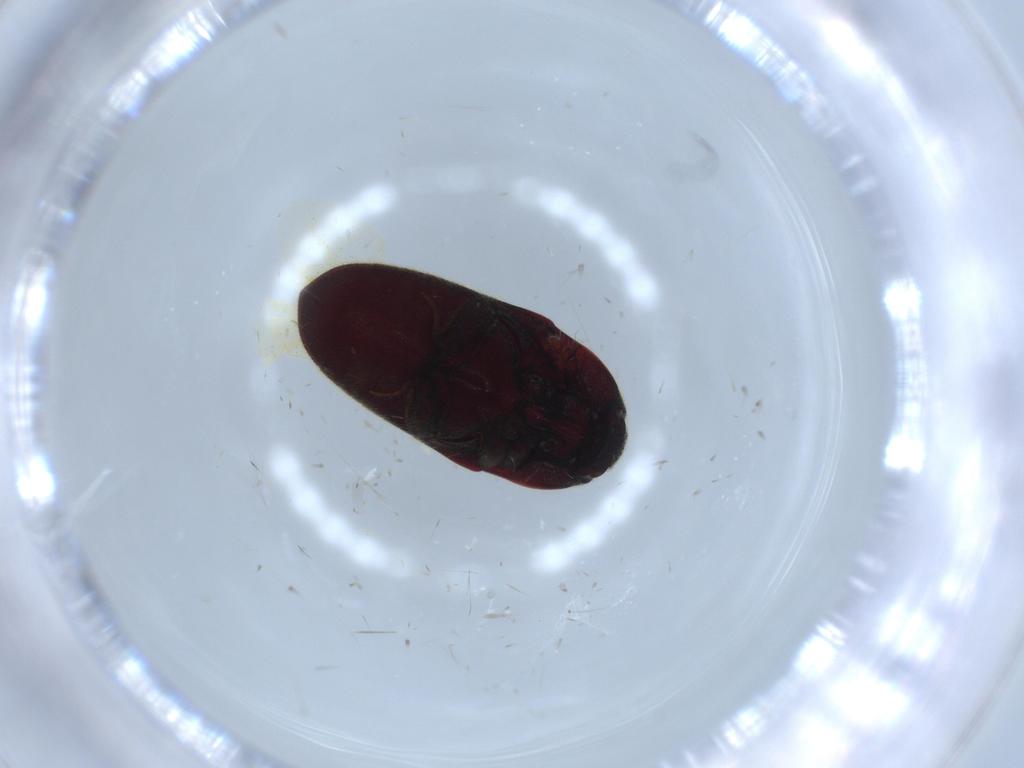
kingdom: Animalia
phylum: Arthropoda
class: Insecta
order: Coleoptera
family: Throscidae
